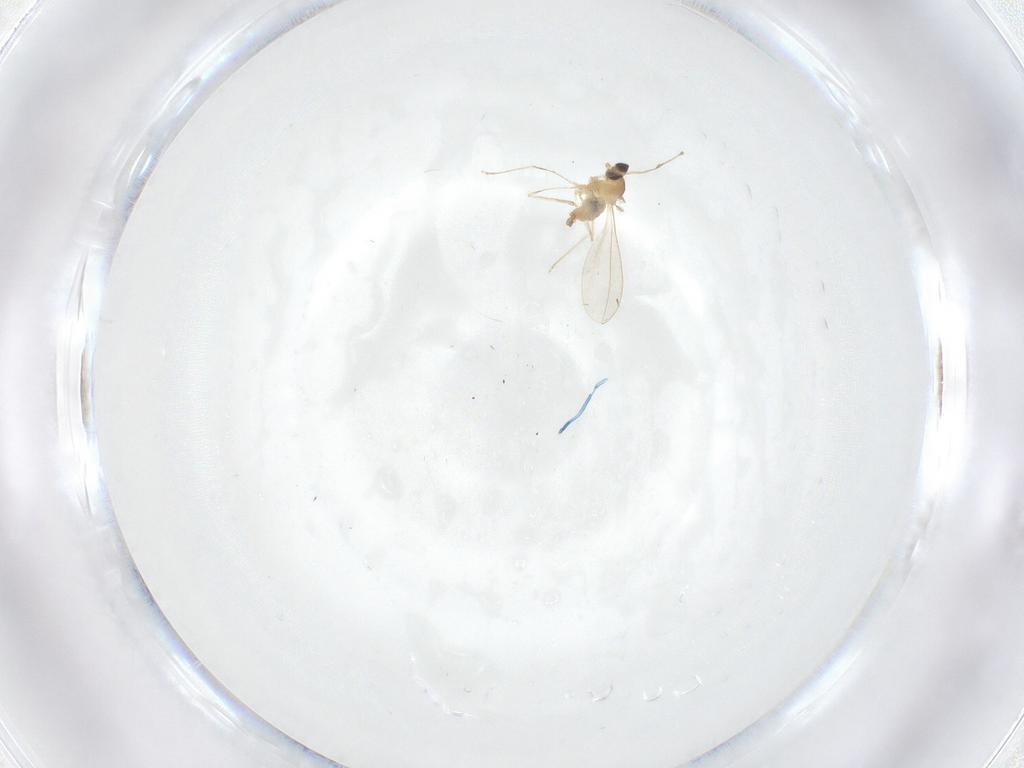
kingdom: Animalia
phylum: Arthropoda
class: Insecta
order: Diptera
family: Cecidomyiidae
